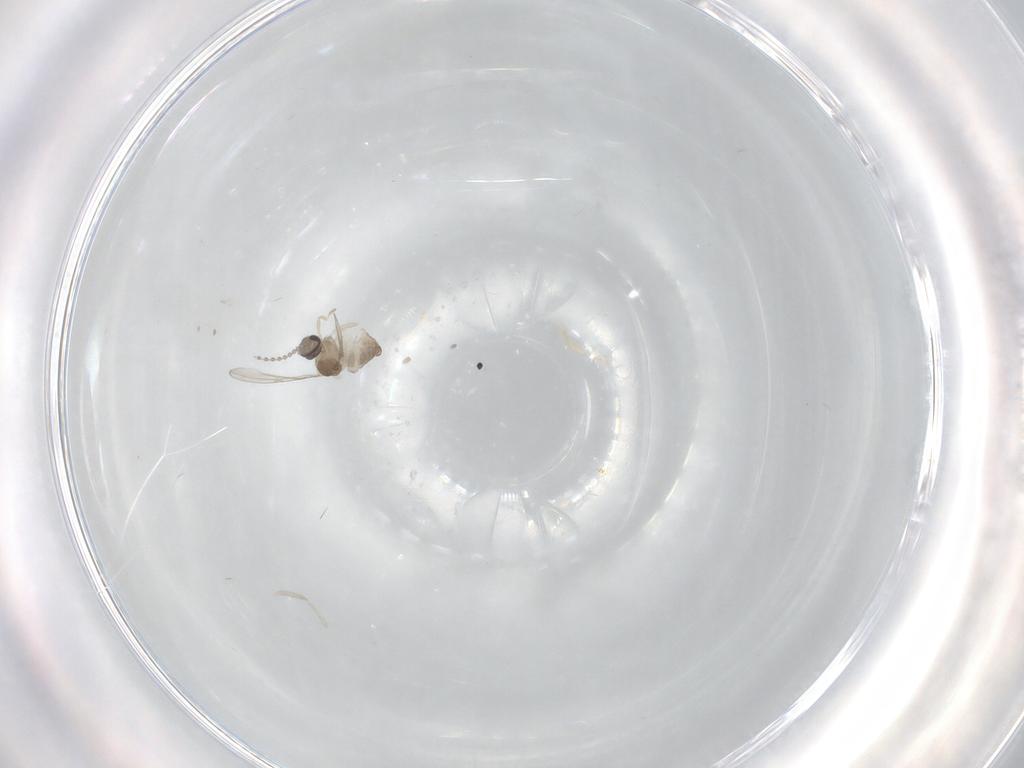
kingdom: Animalia
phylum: Arthropoda
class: Insecta
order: Diptera
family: Cecidomyiidae
